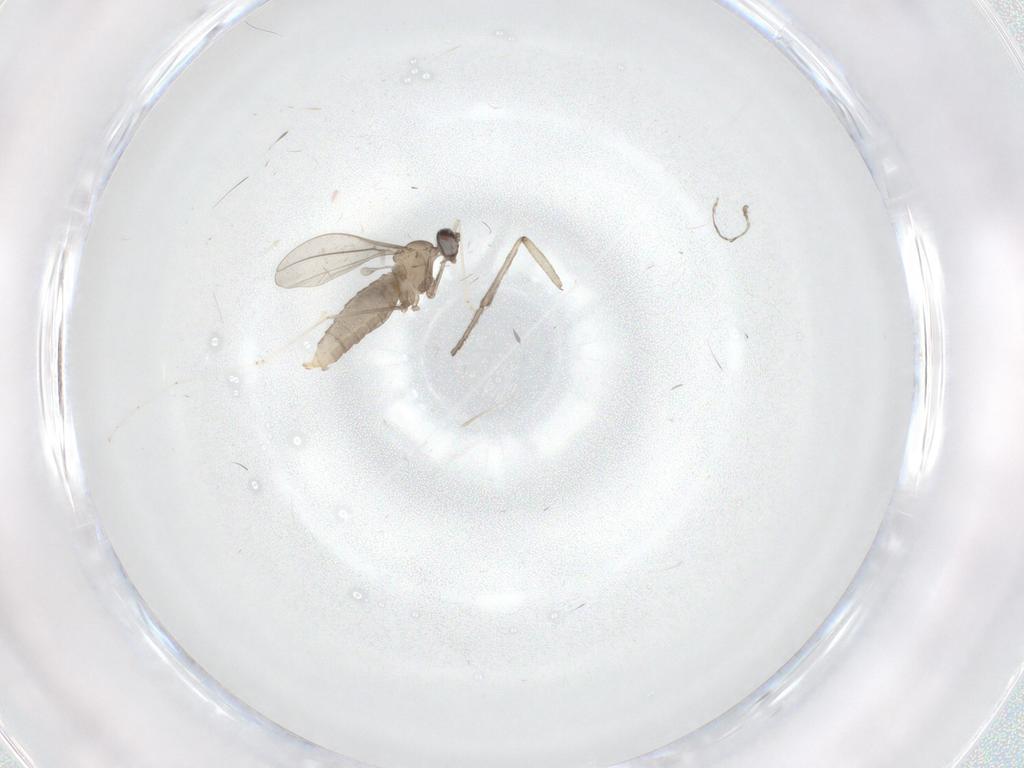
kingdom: Animalia
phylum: Arthropoda
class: Insecta
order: Diptera
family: Cecidomyiidae
